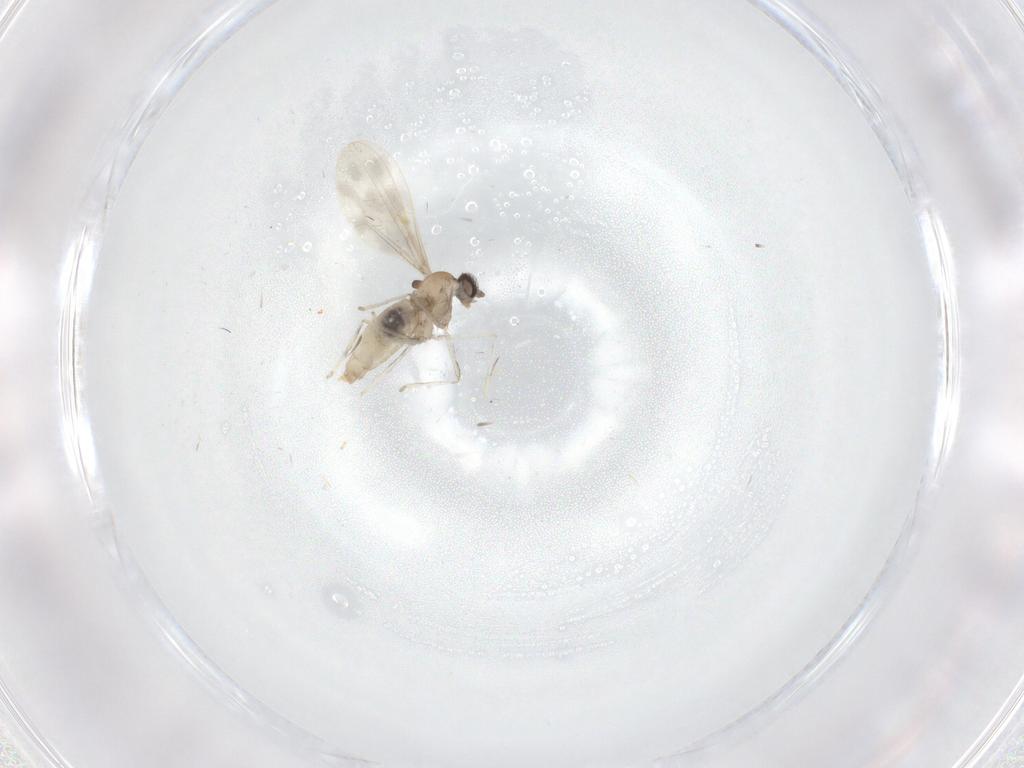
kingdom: Animalia
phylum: Arthropoda
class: Insecta
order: Diptera
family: Cecidomyiidae
